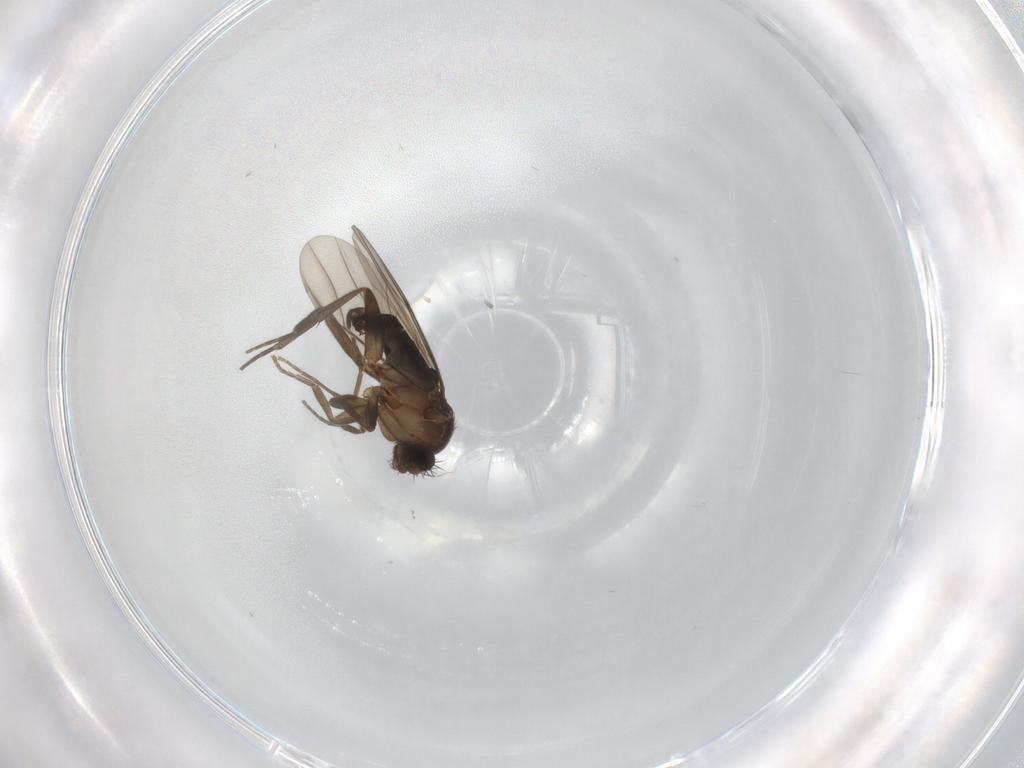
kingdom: Animalia
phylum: Arthropoda
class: Insecta
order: Diptera
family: Phoridae
